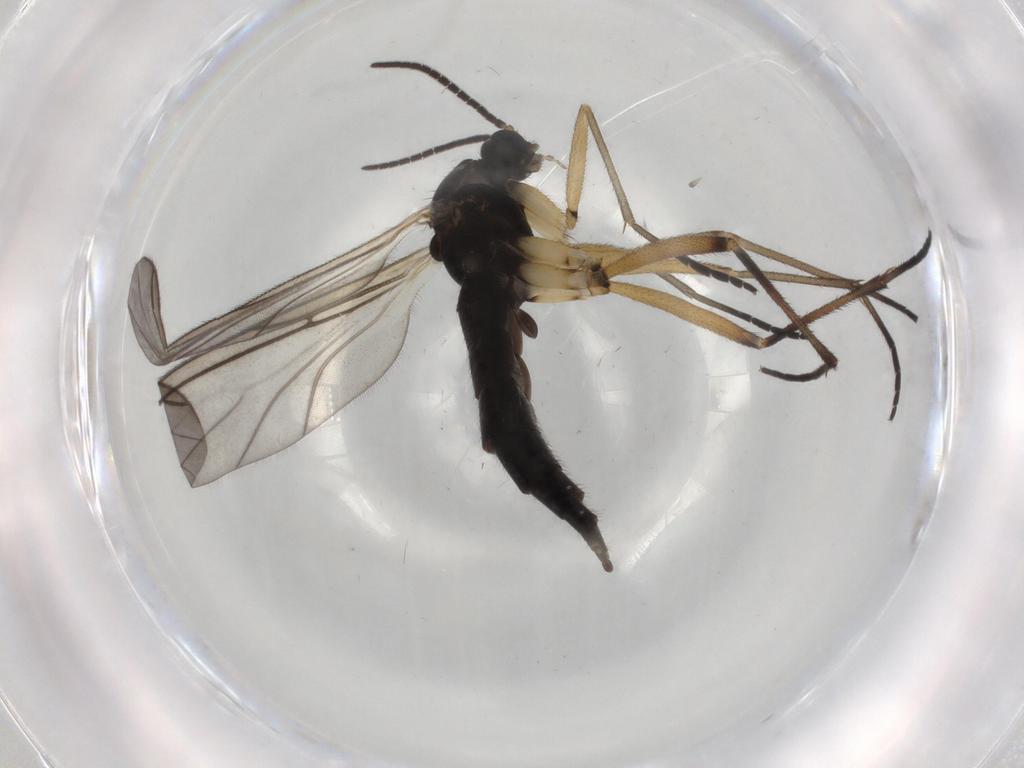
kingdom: Animalia
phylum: Arthropoda
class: Insecta
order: Diptera
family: Sciaridae
